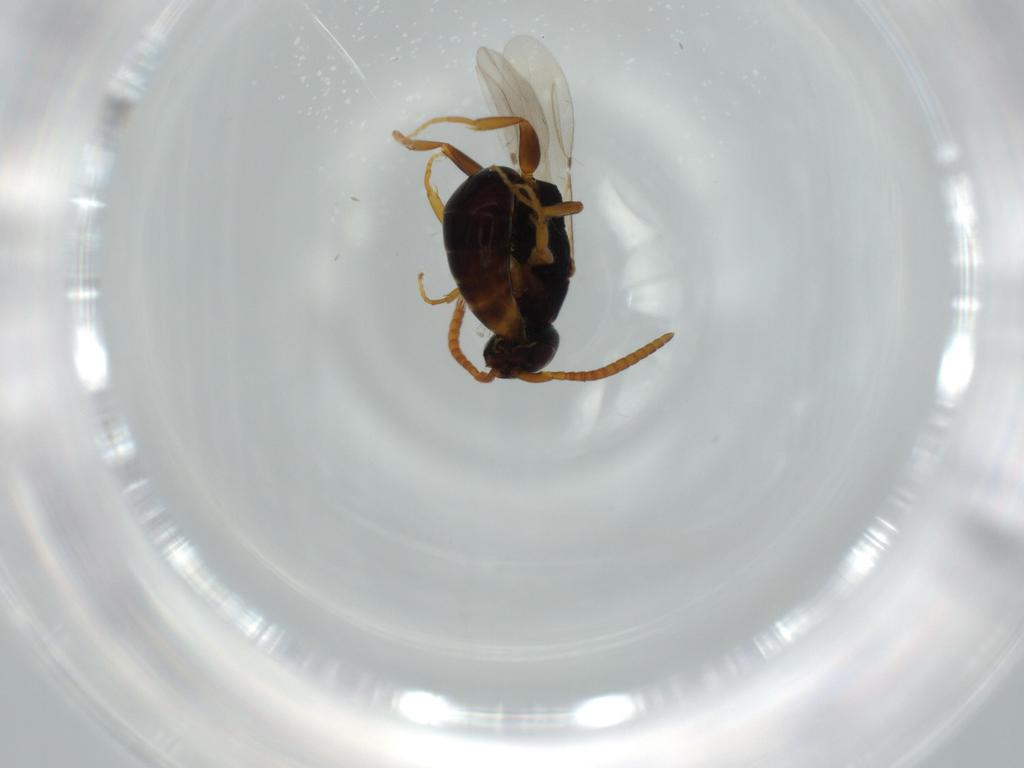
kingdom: Animalia
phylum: Arthropoda
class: Insecta
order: Hymenoptera
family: Bethylidae
